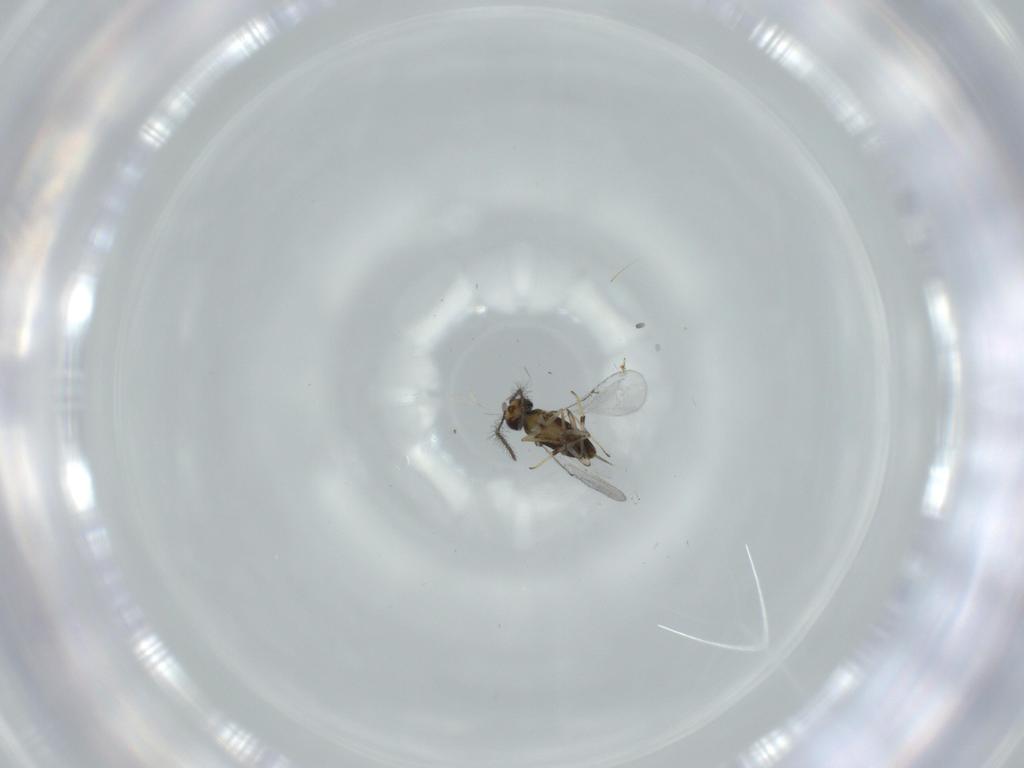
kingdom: Animalia
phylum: Arthropoda
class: Insecta
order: Hymenoptera
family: Encyrtidae
